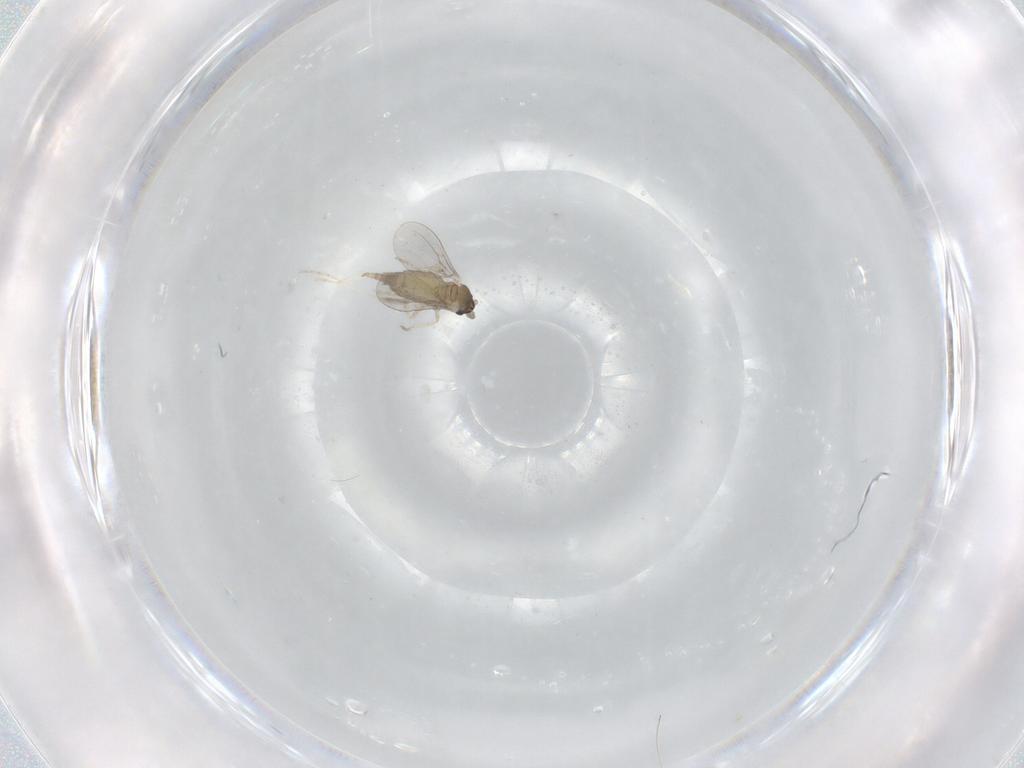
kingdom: Animalia
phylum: Arthropoda
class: Insecta
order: Diptera
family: Cecidomyiidae
